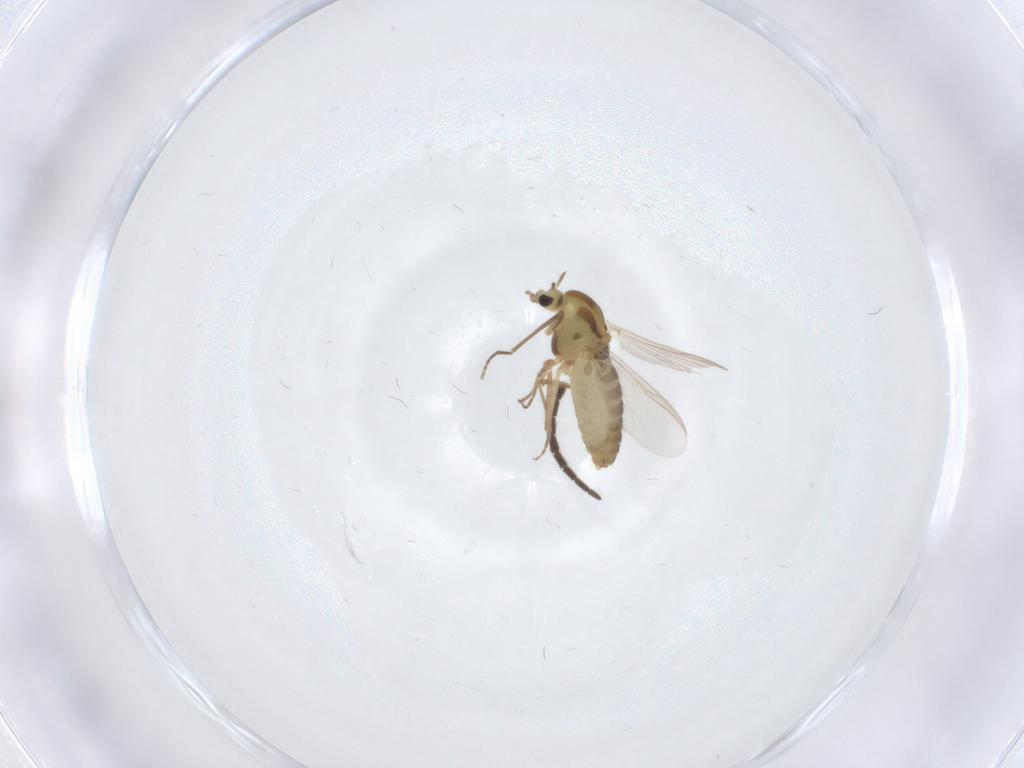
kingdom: Animalia
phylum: Arthropoda
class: Insecta
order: Diptera
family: Chironomidae
